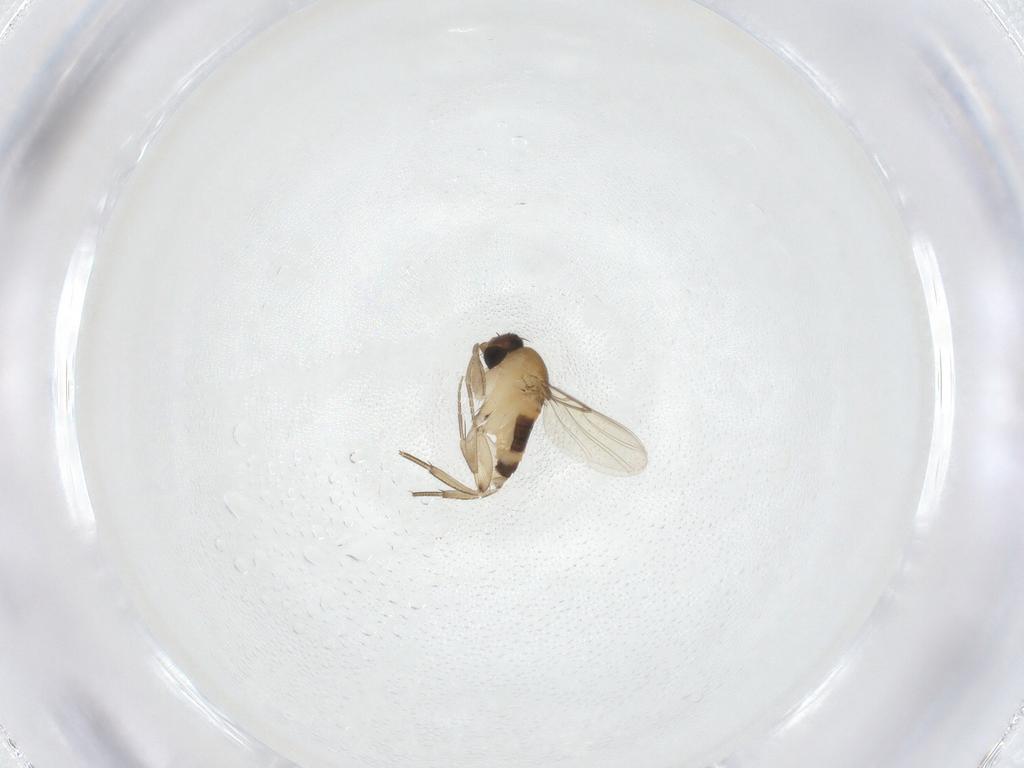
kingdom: Animalia
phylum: Arthropoda
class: Insecta
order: Diptera
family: Phoridae
